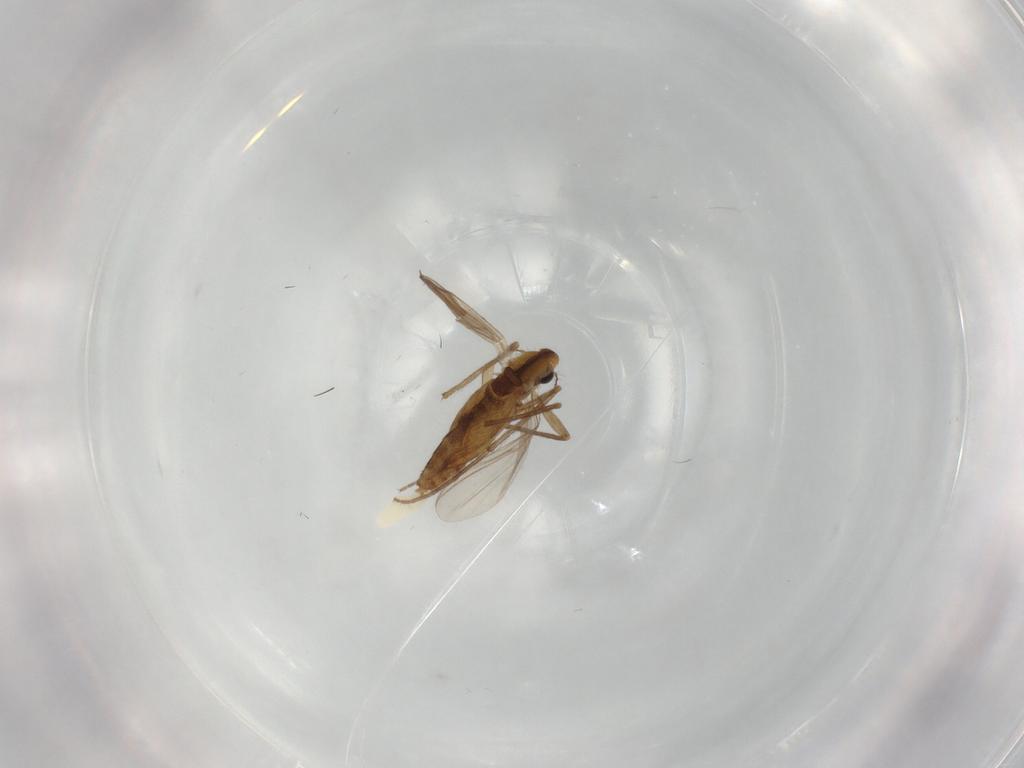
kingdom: Animalia
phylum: Arthropoda
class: Insecta
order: Diptera
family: Chironomidae
